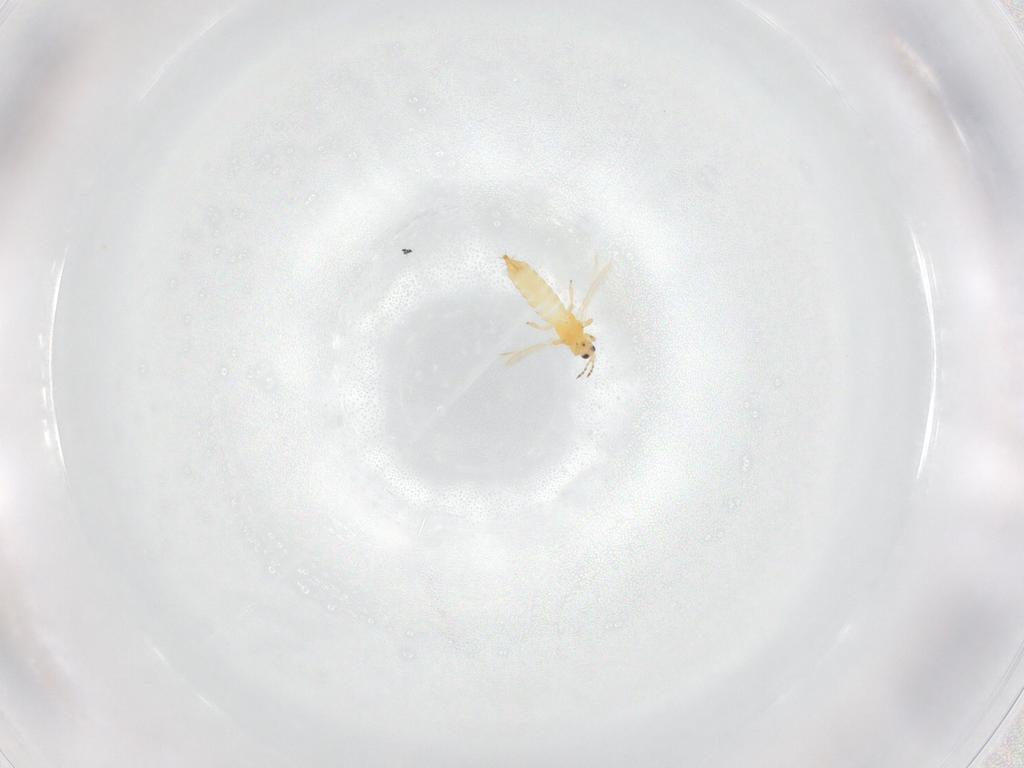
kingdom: Animalia
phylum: Arthropoda
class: Insecta
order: Thysanoptera
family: Thripidae
